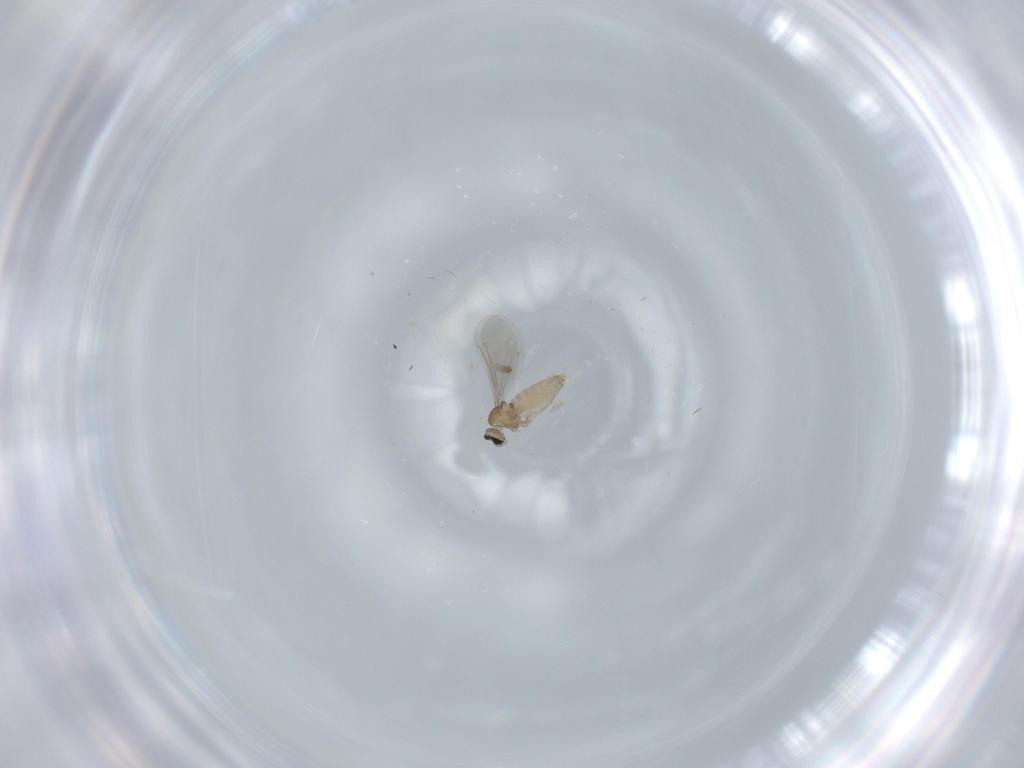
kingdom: Animalia
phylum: Arthropoda
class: Insecta
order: Diptera
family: Cecidomyiidae
